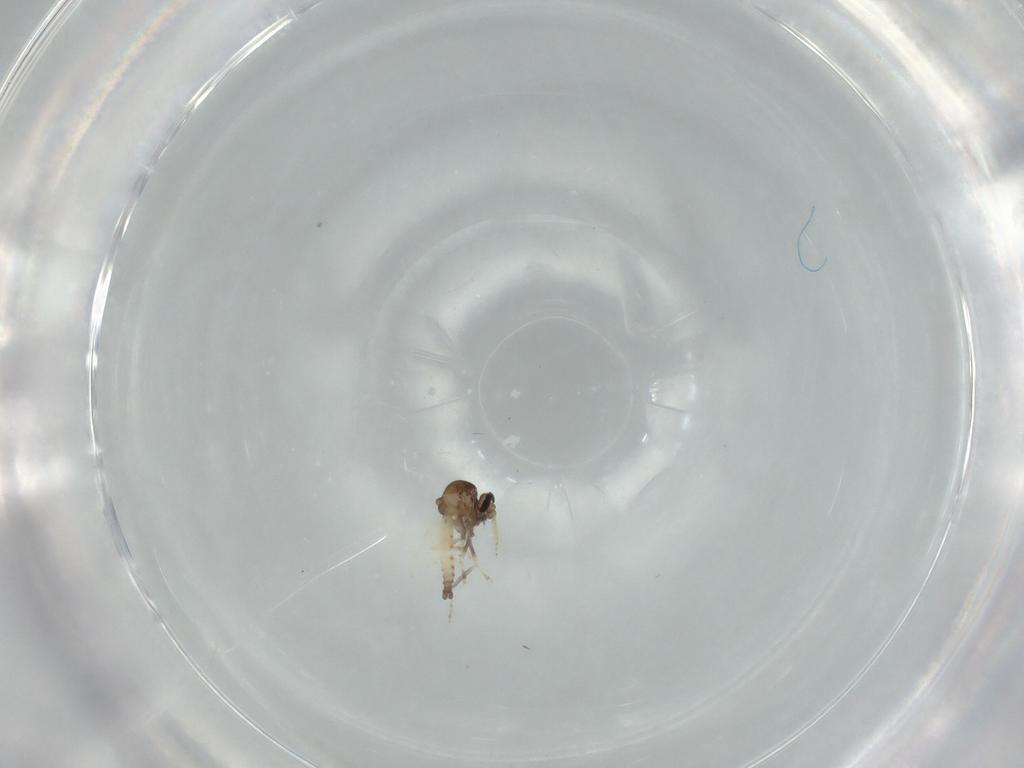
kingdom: Animalia
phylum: Arthropoda
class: Insecta
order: Diptera
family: Ceratopogonidae
